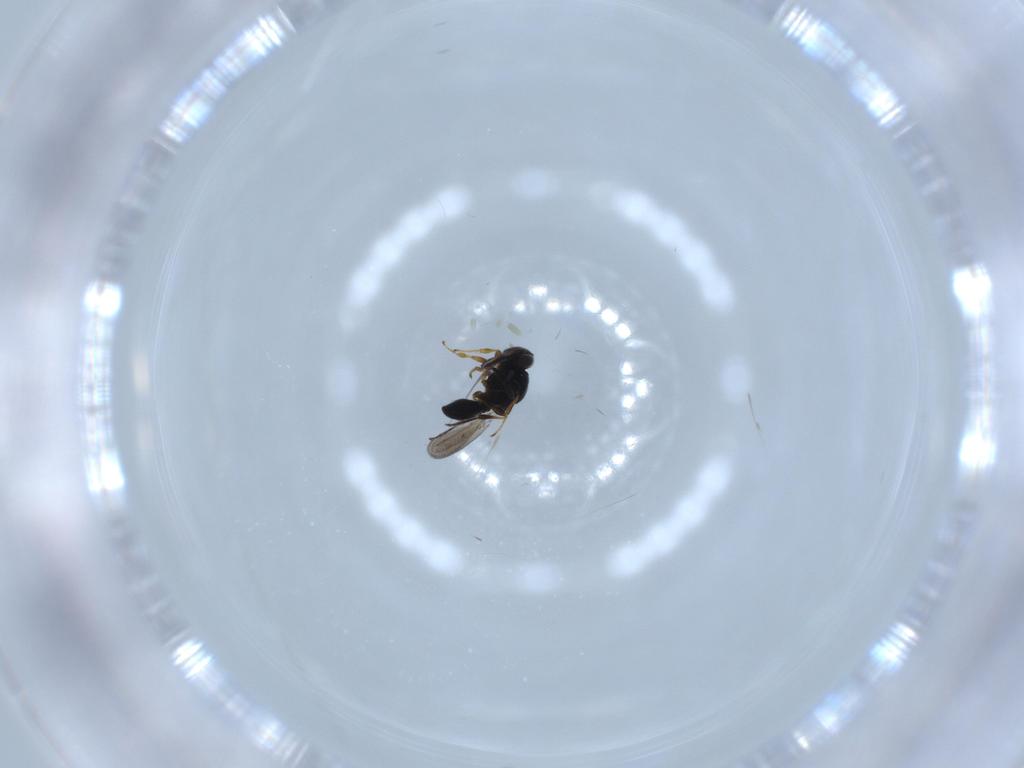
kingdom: Animalia
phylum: Arthropoda
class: Insecta
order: Hymenoptera
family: Platygastridae
